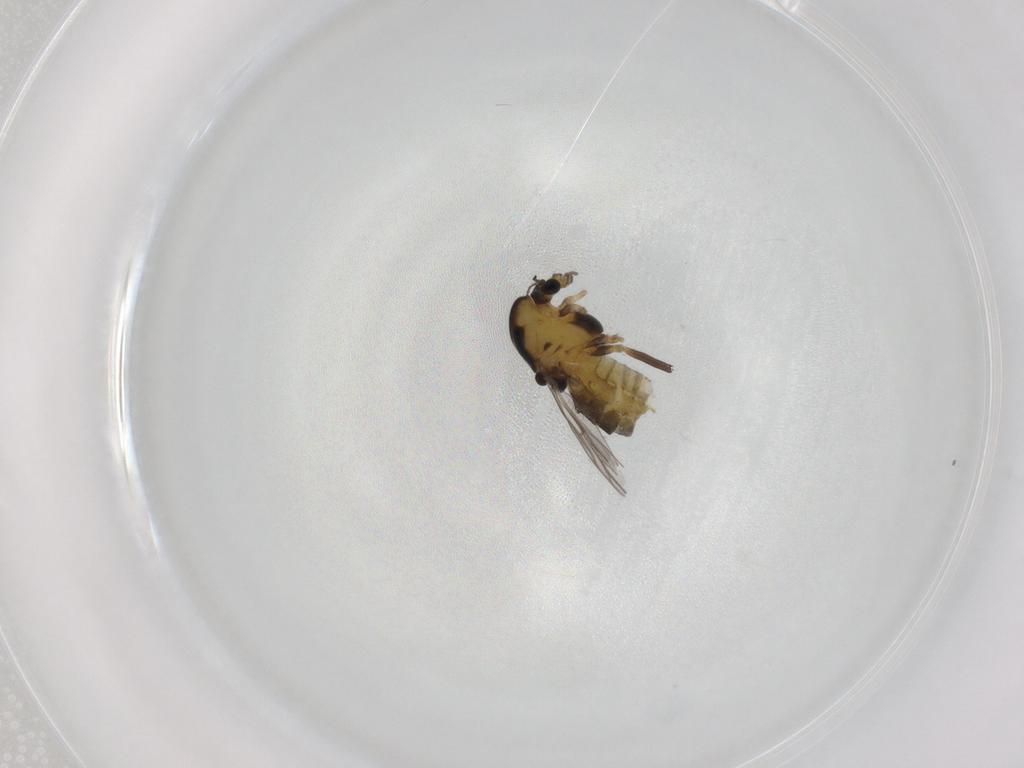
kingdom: Animalia
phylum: Arthropoda
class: Insecta
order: Diptera
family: Chironomidae
